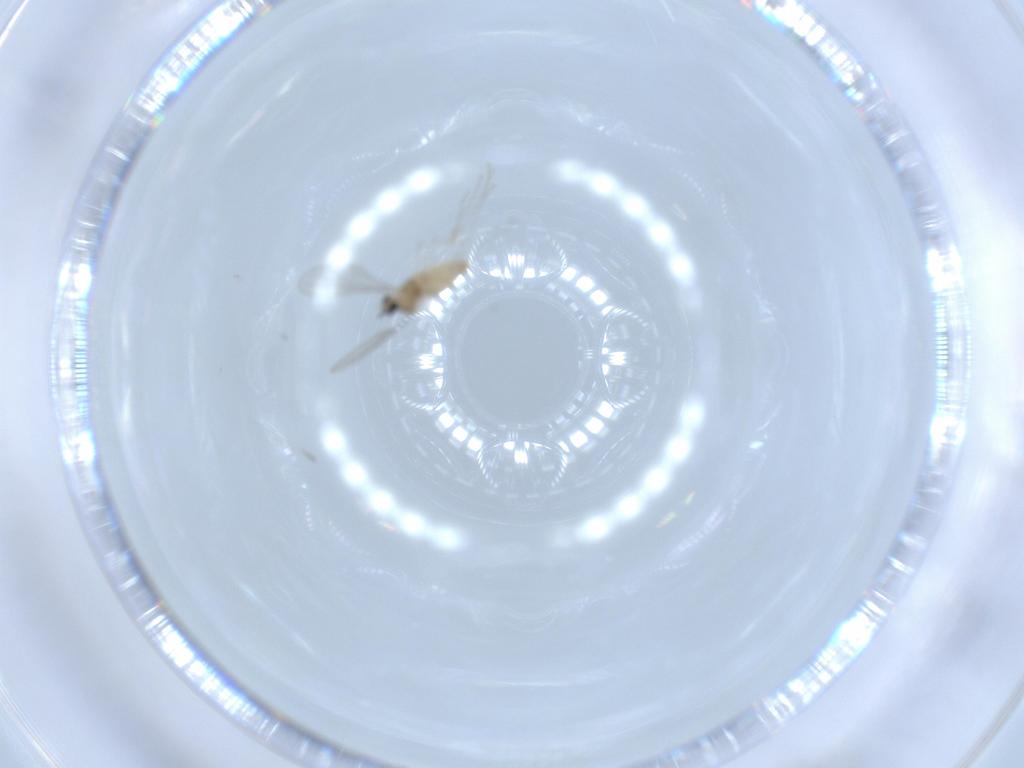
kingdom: Animalia
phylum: Arthropoda
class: Insecta
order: Diptera
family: Cecidomyiidae
